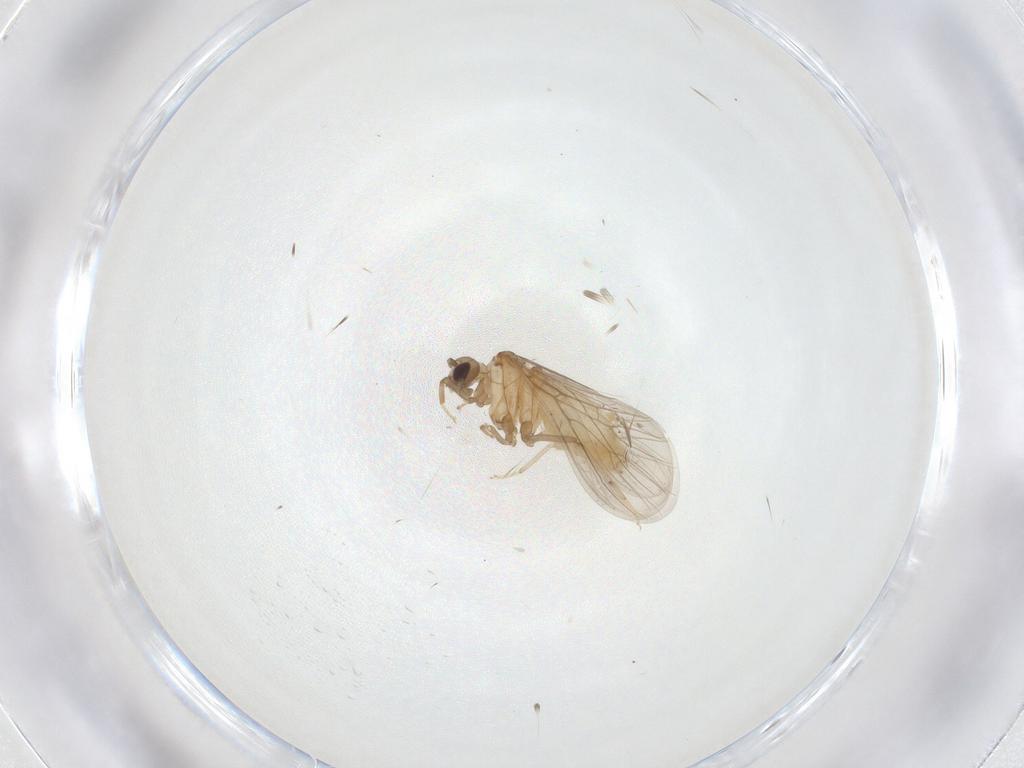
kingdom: Animalia
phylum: Arthropoda
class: Insecta
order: Neuroptera
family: Coniopterygidae
